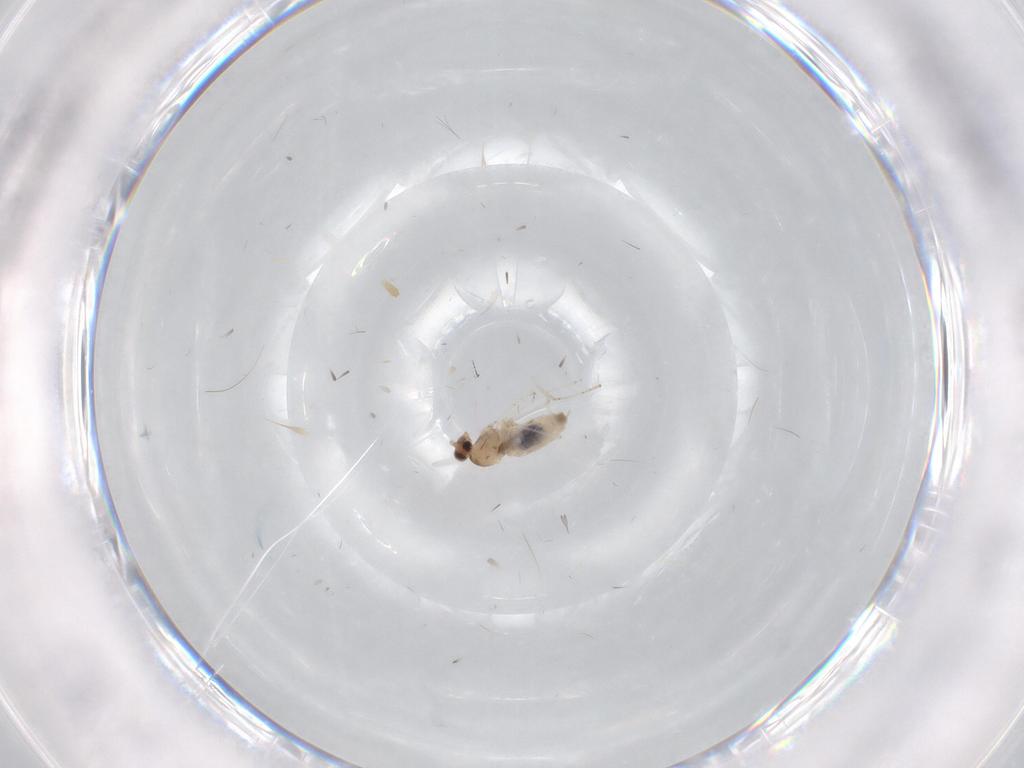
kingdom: Animalia
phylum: Arthropoda
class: Insecta
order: Diptera
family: Cecidomyiidae
